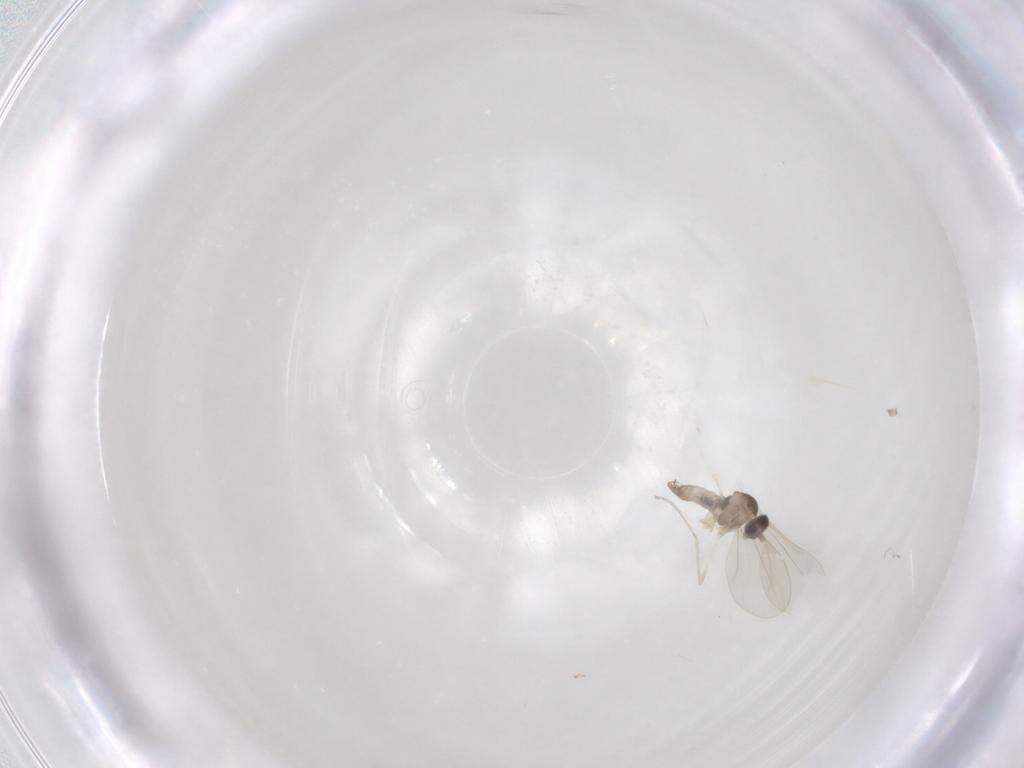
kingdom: Animalia
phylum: Arthropoda
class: Insecta
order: Diptera
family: Cecidomyiidae
